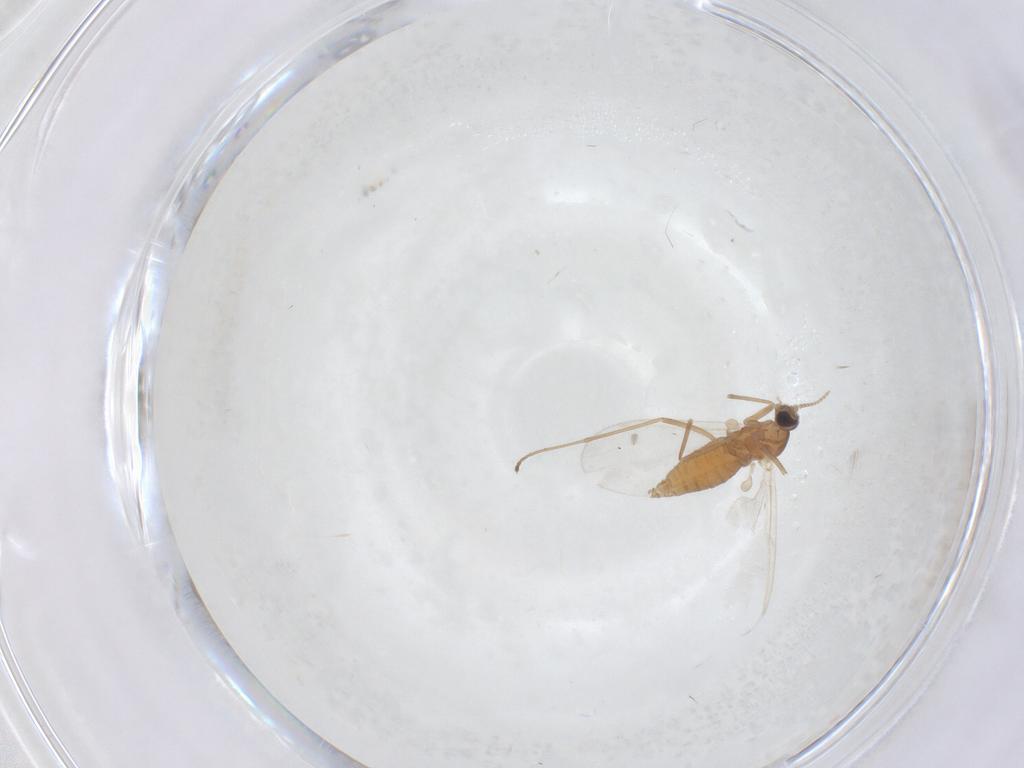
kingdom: Animalia
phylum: Arthropoda
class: Insecta
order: Diptera
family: Cecidomyiidae
